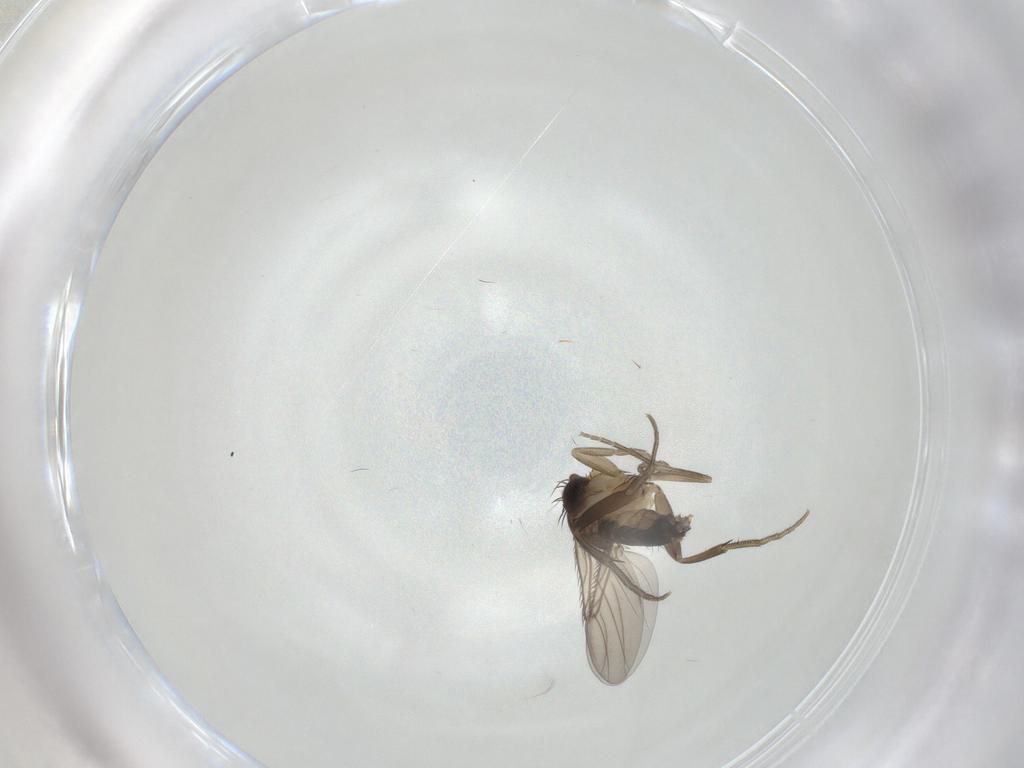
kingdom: Animalia
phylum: Arthropoda
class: Insecta
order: Diptera
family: Phoridae
